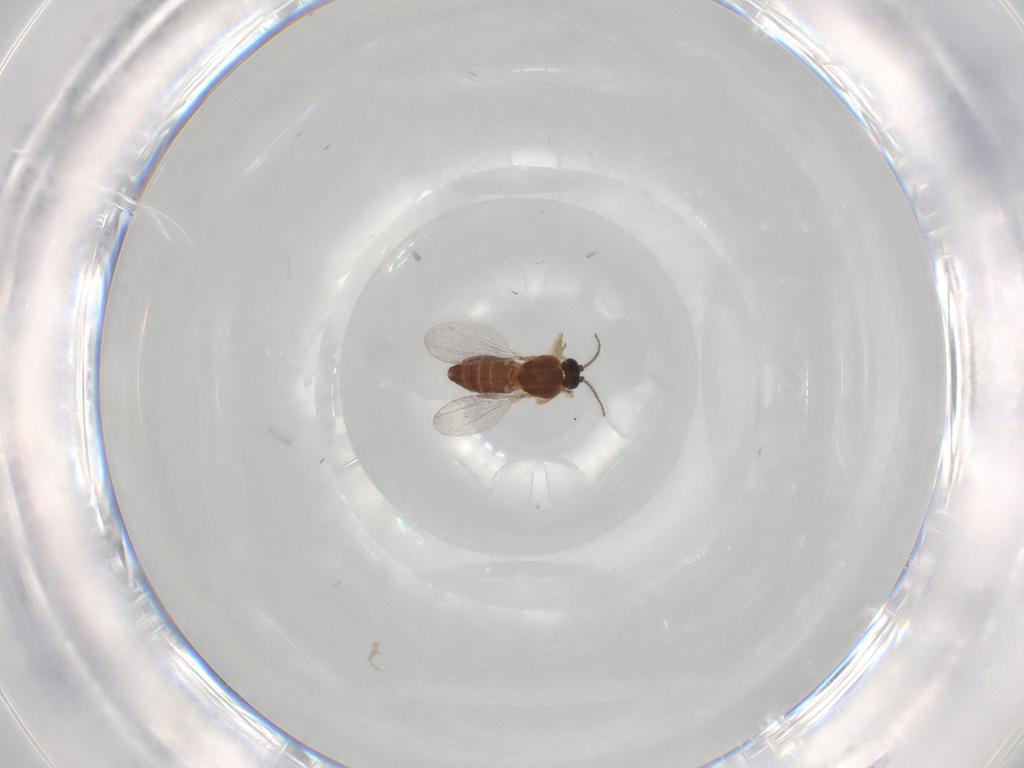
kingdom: Animalia
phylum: Arthropoda
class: Insecta
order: Diptera
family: Ceratopogonidae
